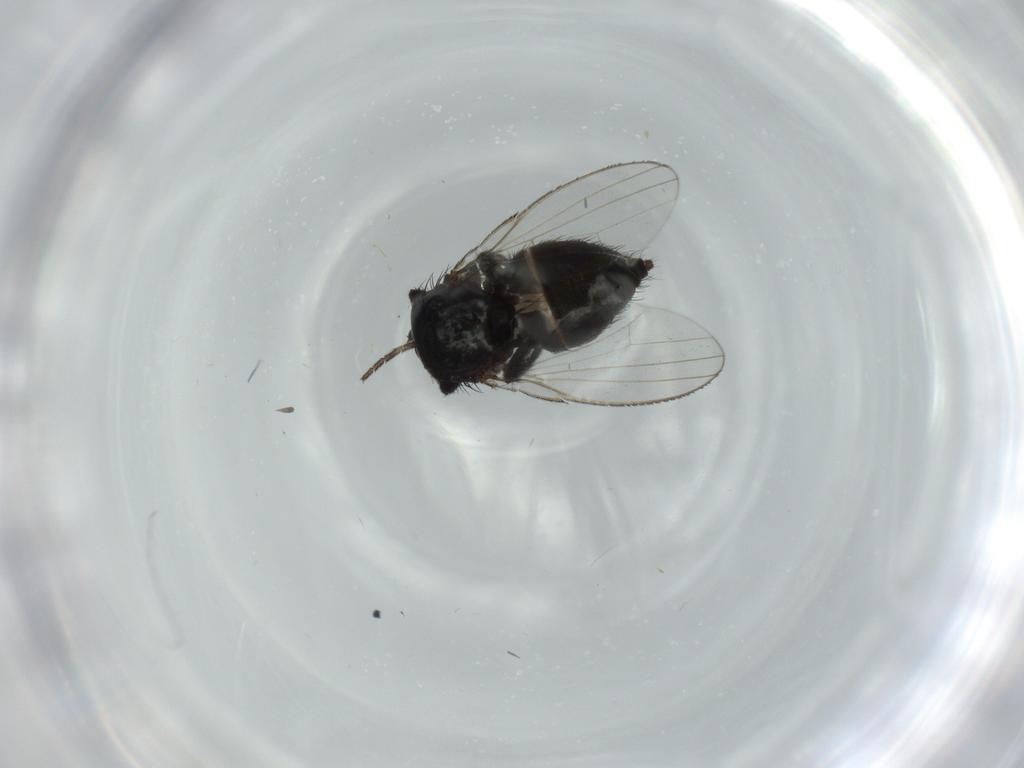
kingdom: Animalia
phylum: Arthropoda
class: Insecta
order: Diptera
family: Milichiidae
